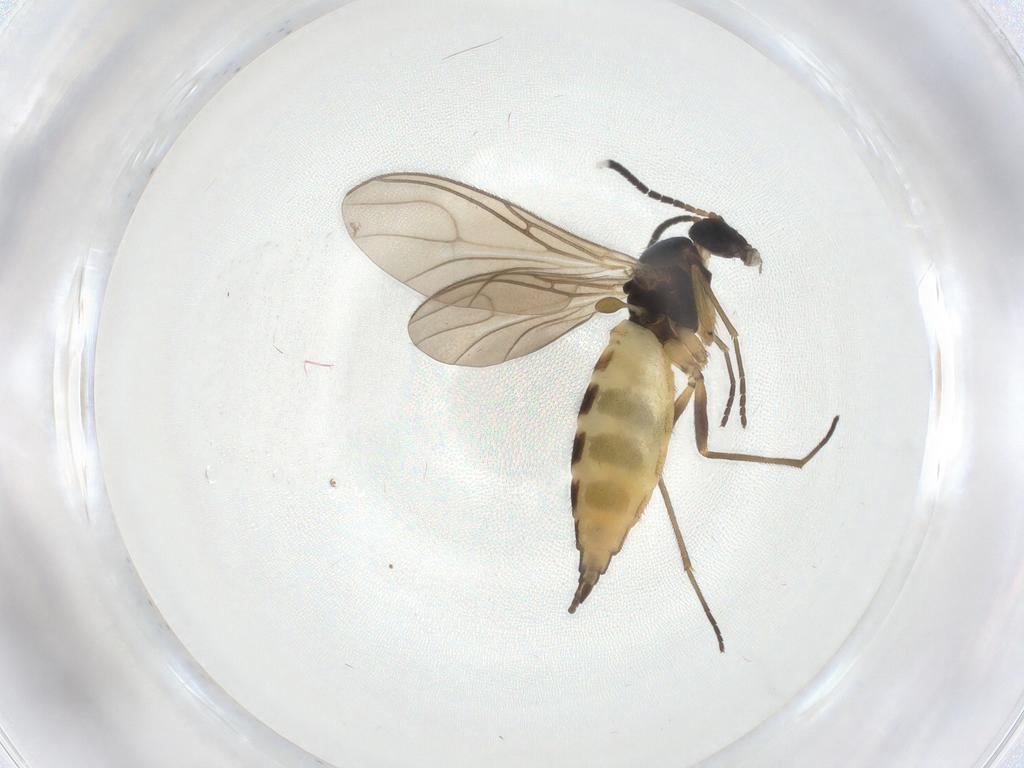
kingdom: Animalia
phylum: Arthropoda
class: Insecta
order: Diptera
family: Sciaridae
